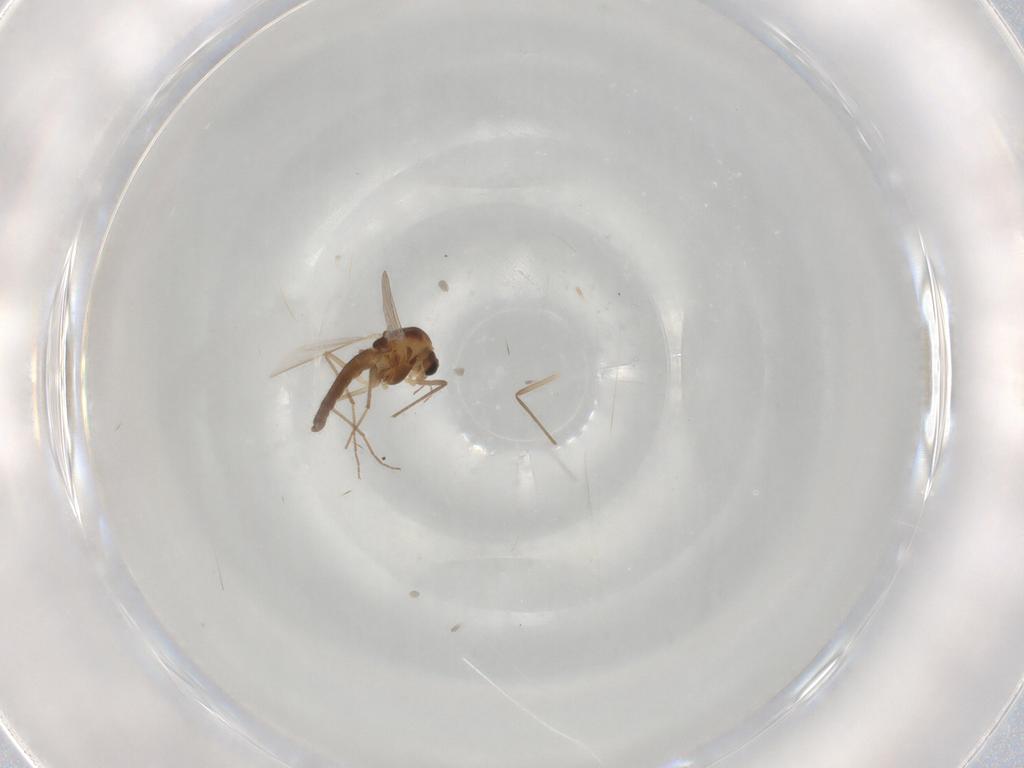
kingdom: Animalia
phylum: Arthropoda
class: Insecta
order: Diptera
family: Chironomidae
